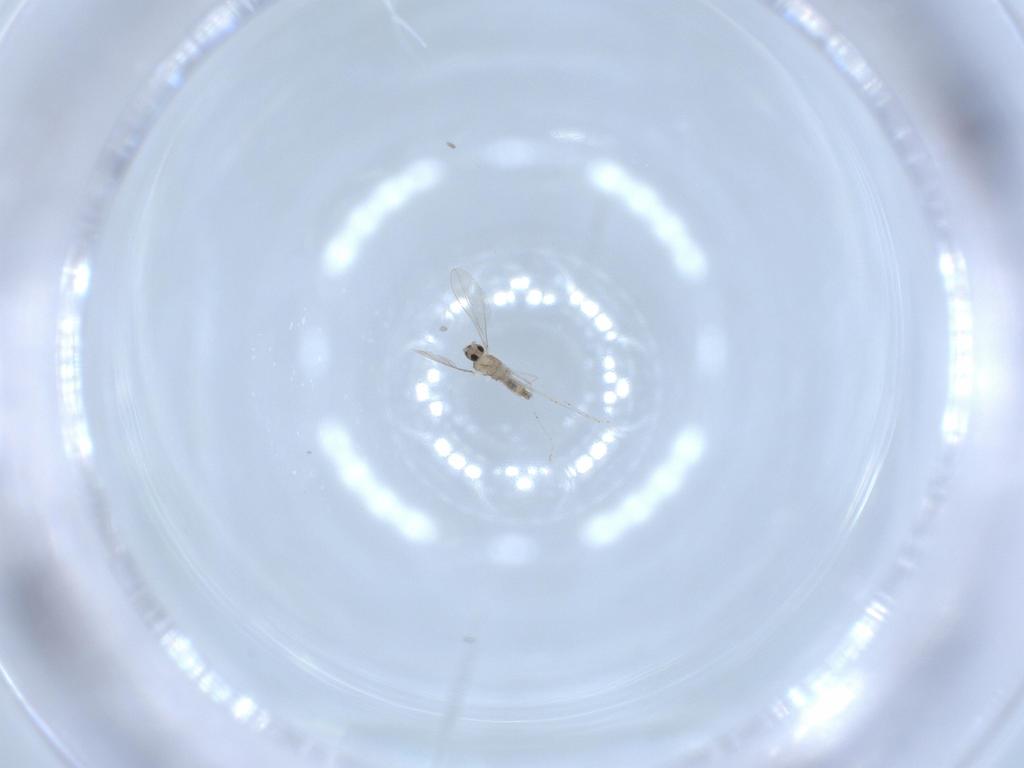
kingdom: Animalia
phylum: Arthropoda
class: Insecta
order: Diptera
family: Cecidomyiidae
